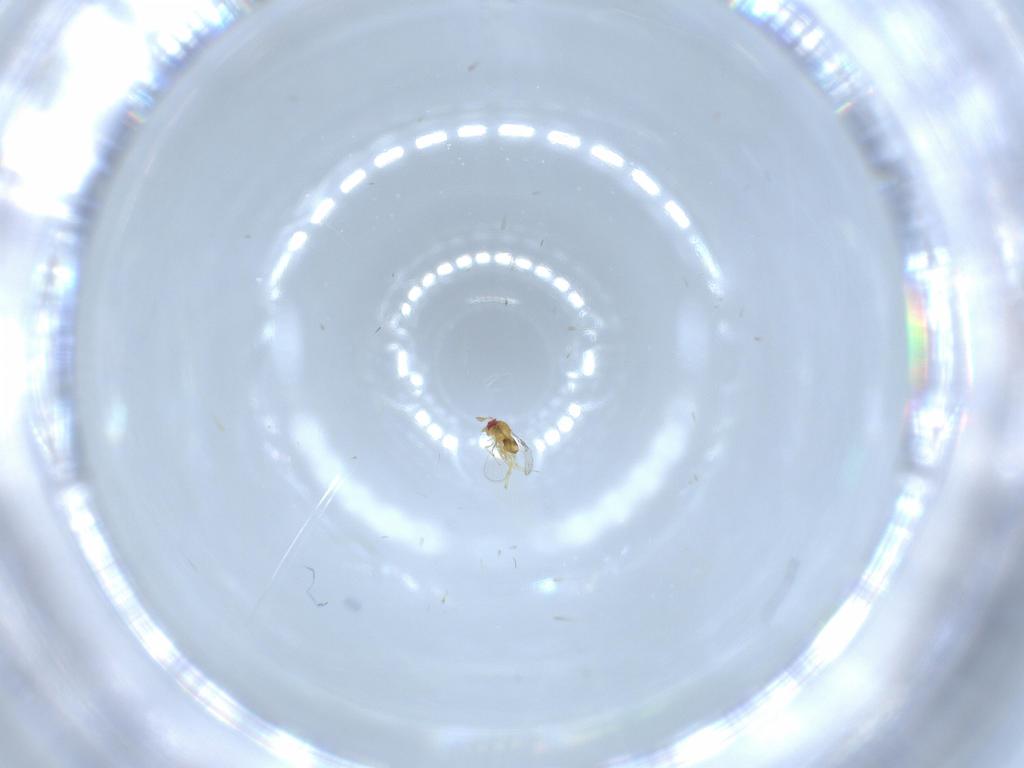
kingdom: Animalia
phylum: Arthropoda
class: Insecta
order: Hymenoptera
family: Trichogrammatidae
